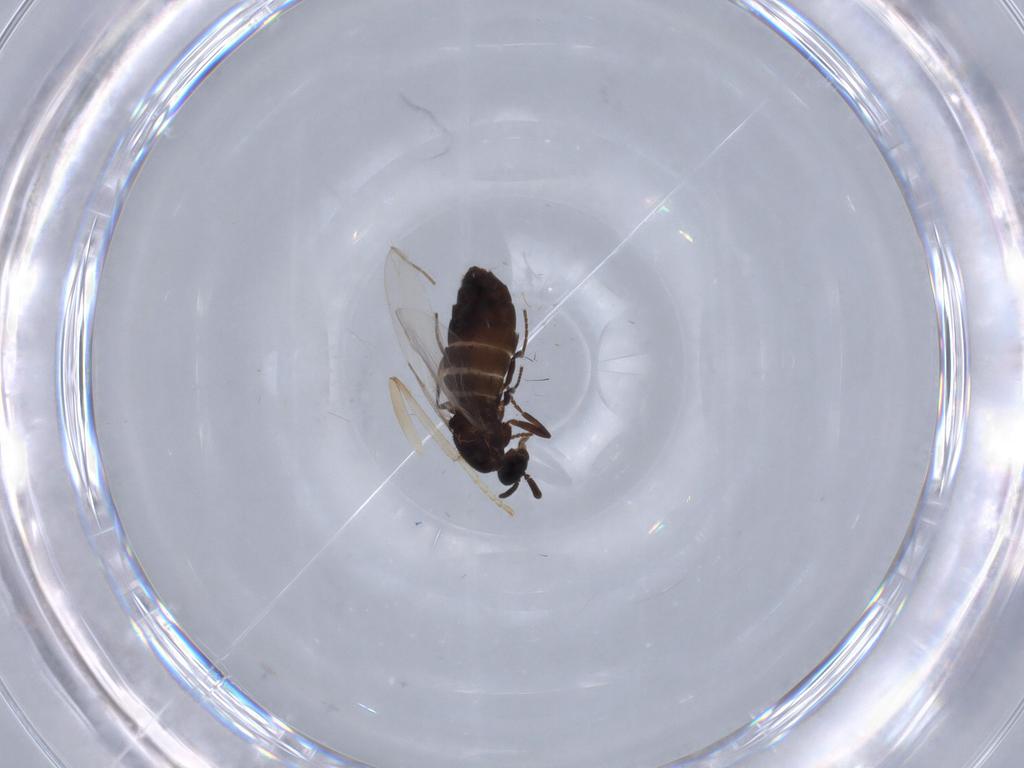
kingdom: Animalia
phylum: Arthropoda
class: Insecta
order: Diptera
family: Scatopsidae
